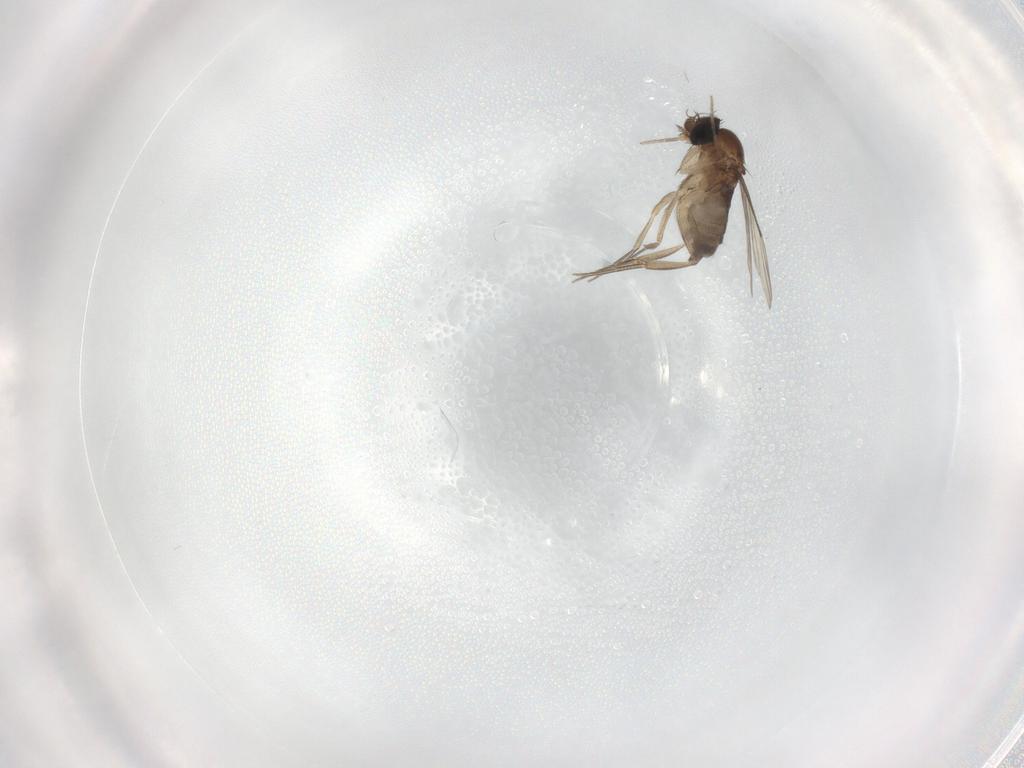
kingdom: Animalia
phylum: Arthropoda
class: Insecta
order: Diptera
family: Phoridae
